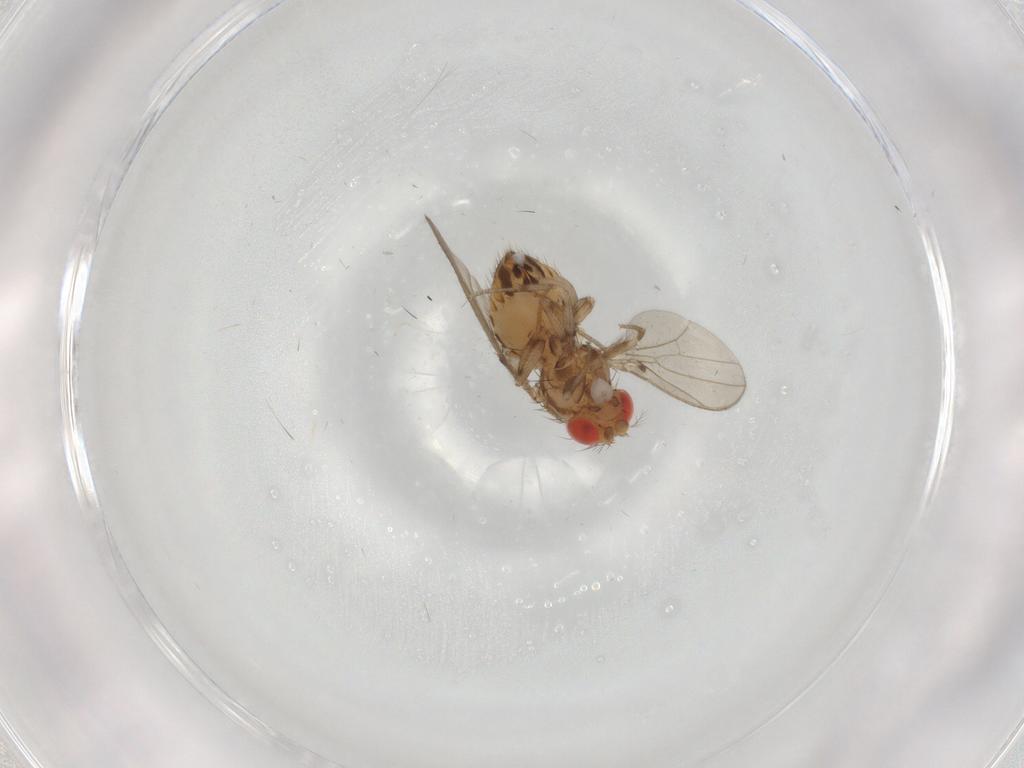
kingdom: Animalia
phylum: Arthropoda
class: Insecta
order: Diptera
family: Drosophilidae
